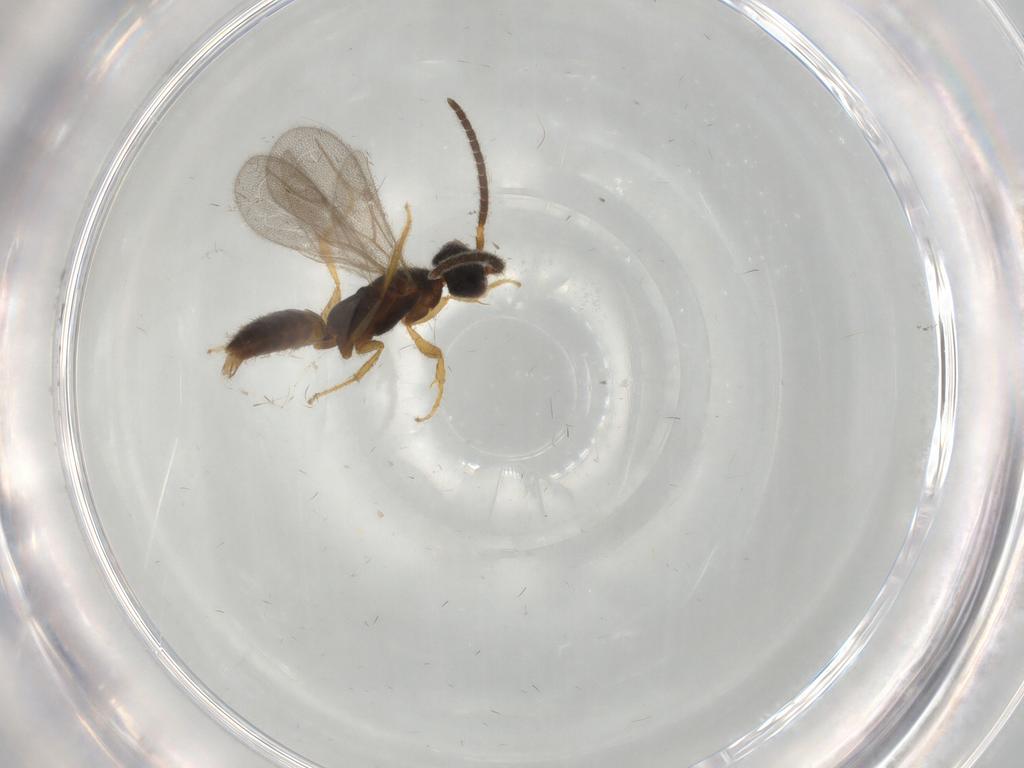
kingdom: Animalia
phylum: Arthropoda
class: Insecta
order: Hymenoptera
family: Bethylidae
